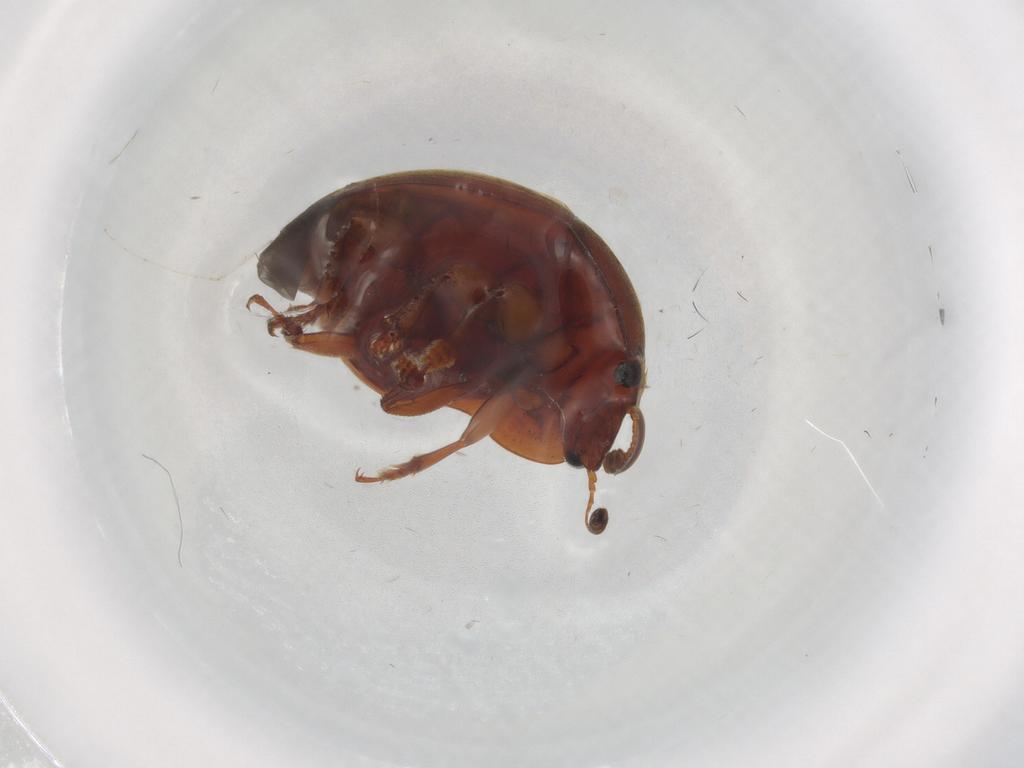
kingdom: Animalia
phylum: Arthropoda
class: Insecta
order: Coleoptera
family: Nitidulidae
